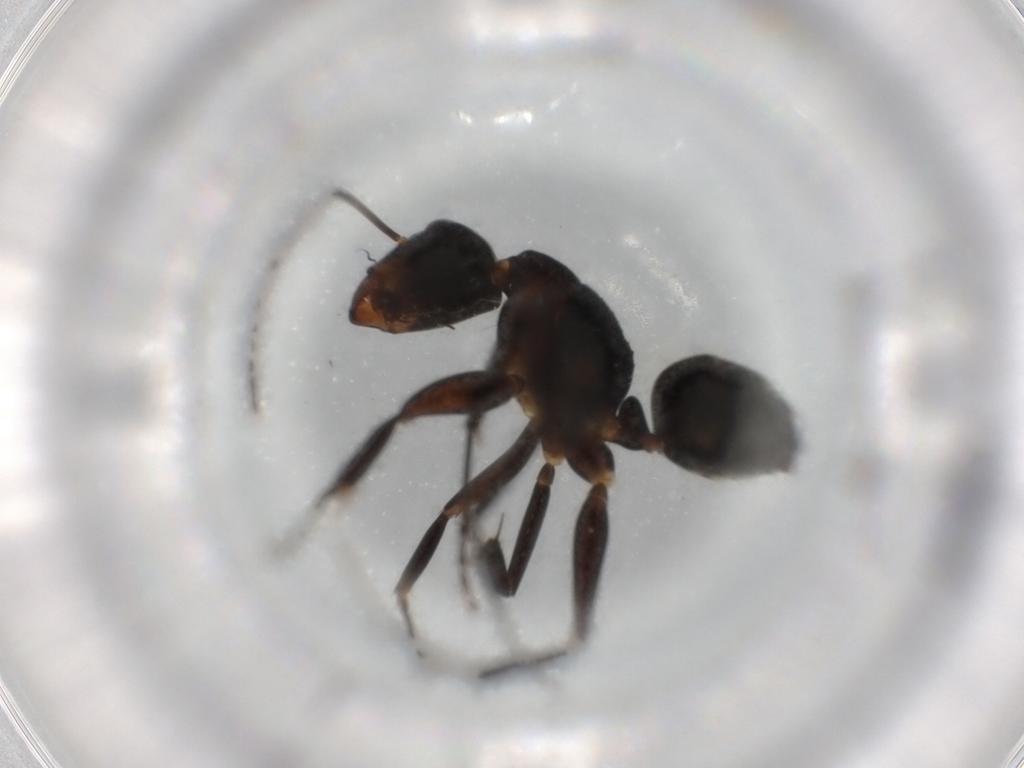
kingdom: Animalia
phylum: Arthropoda
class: Insecta
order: Hymenoptera
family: Formicidae
